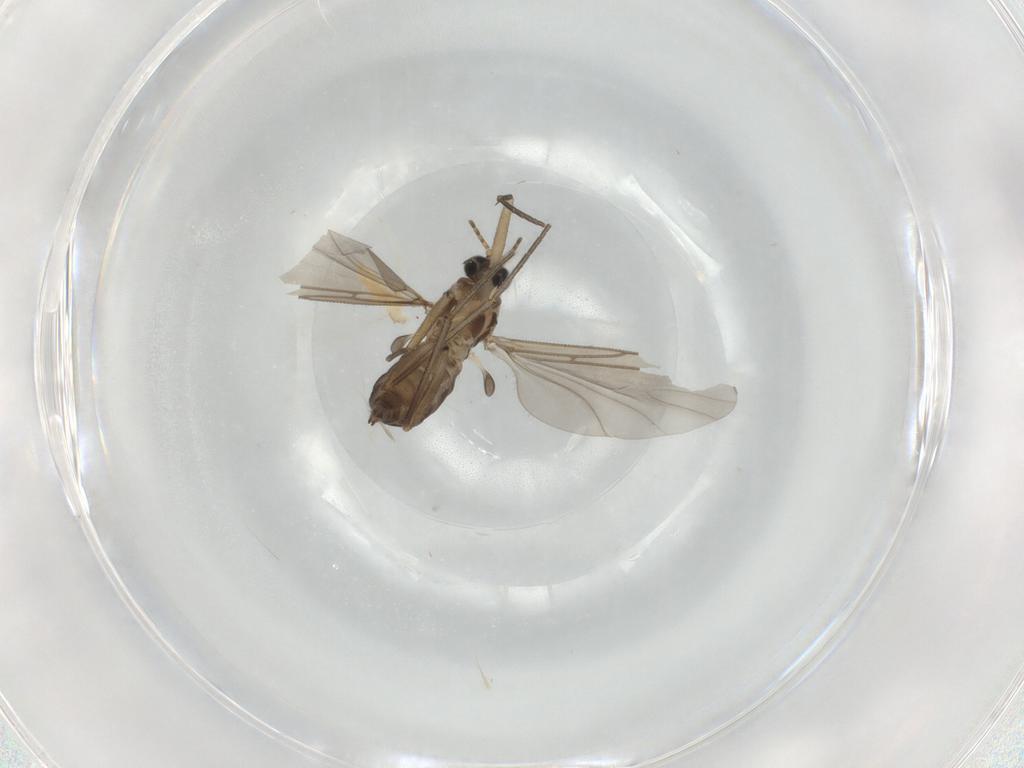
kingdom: Animalia
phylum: Arthropoda
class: Insecta
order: Diptera
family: Sciaridae
